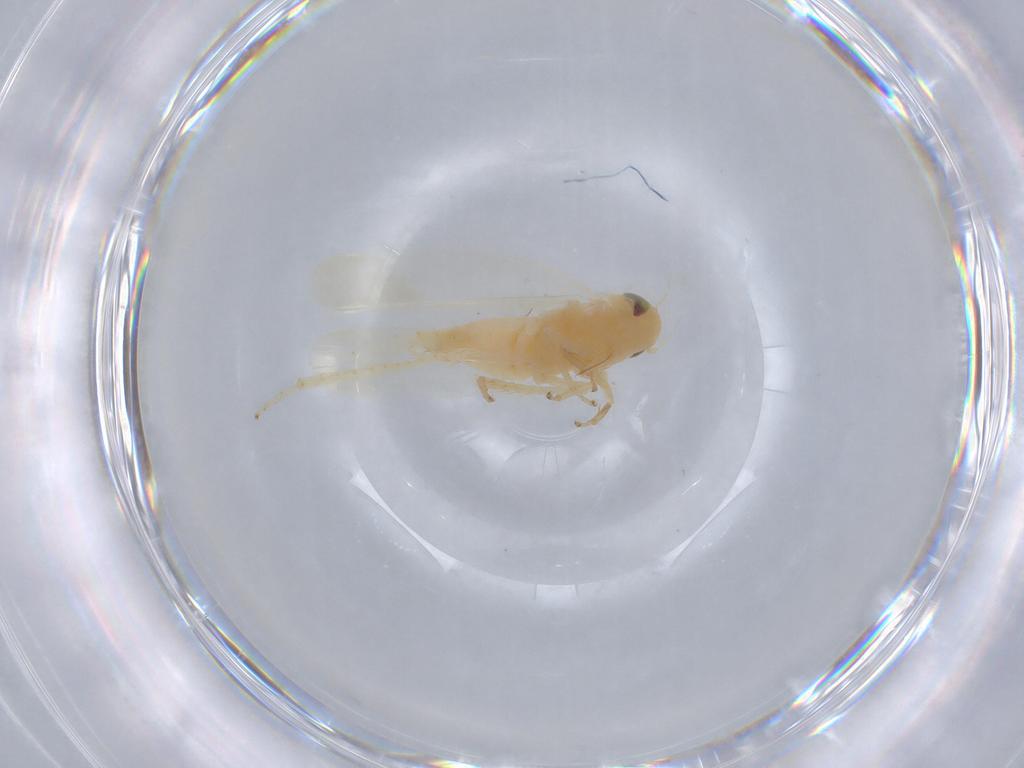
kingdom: Animalia
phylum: Arthropoda
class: Insecta
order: Hemiptera
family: Cicadellidae
